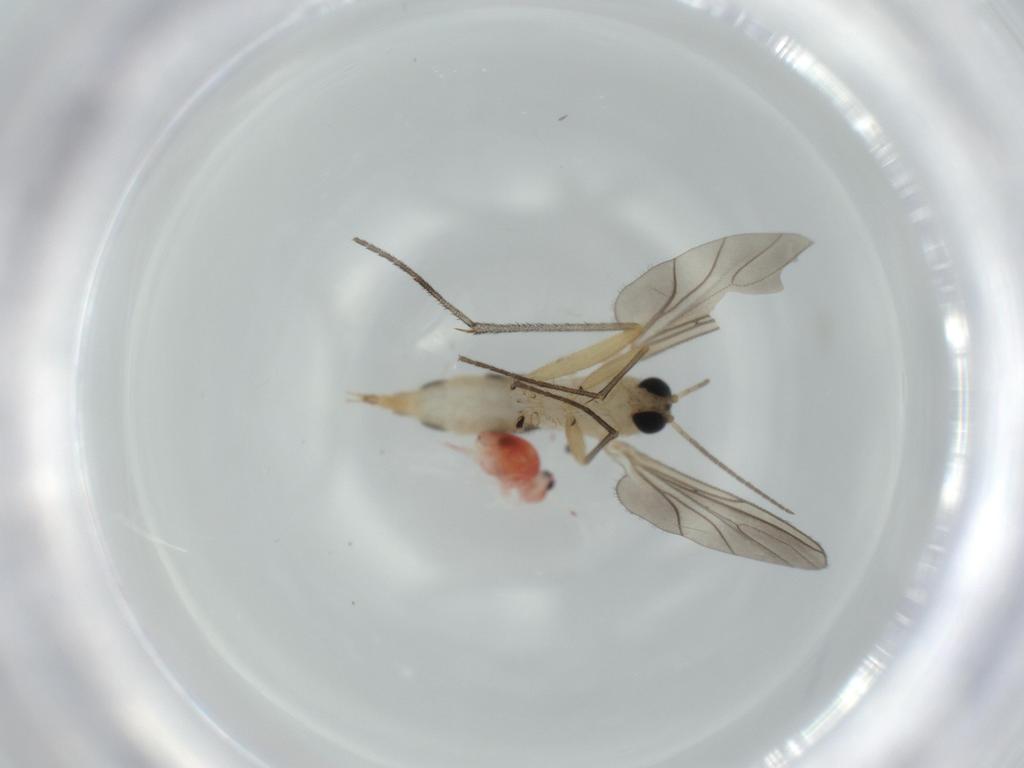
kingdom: Animalia
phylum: Arthropoda
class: Insecta
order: Diptera
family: Sciaridae
